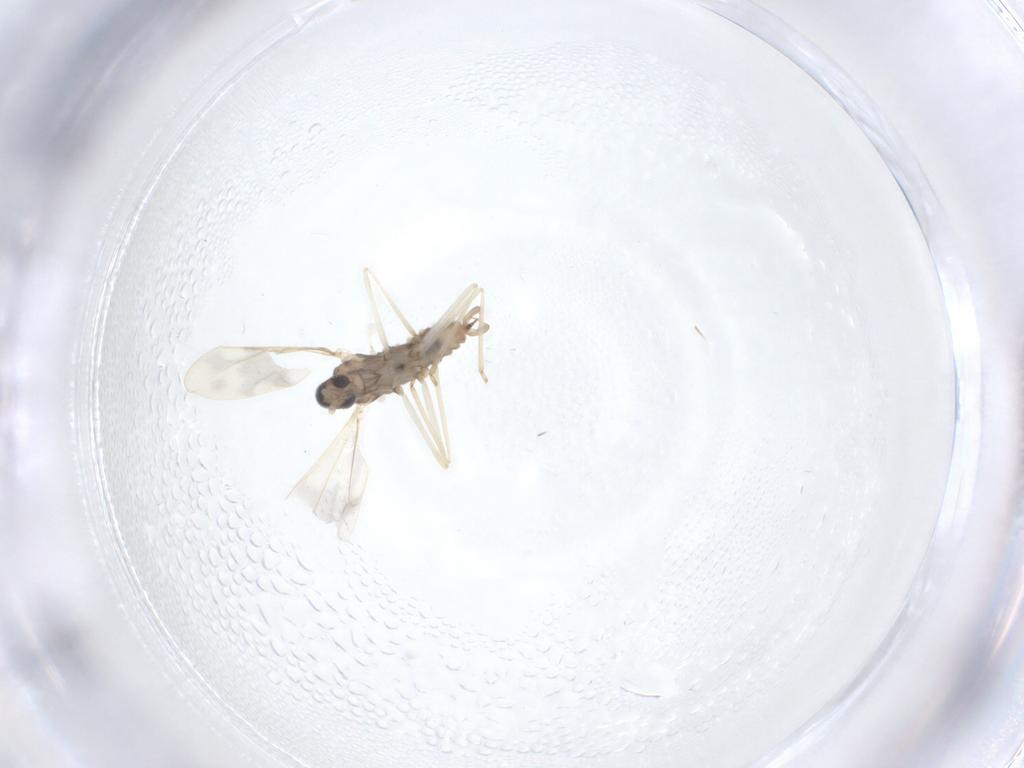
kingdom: Animalia
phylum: Arthropoda
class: Insecta
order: Diptera
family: Cecidomyiidae
